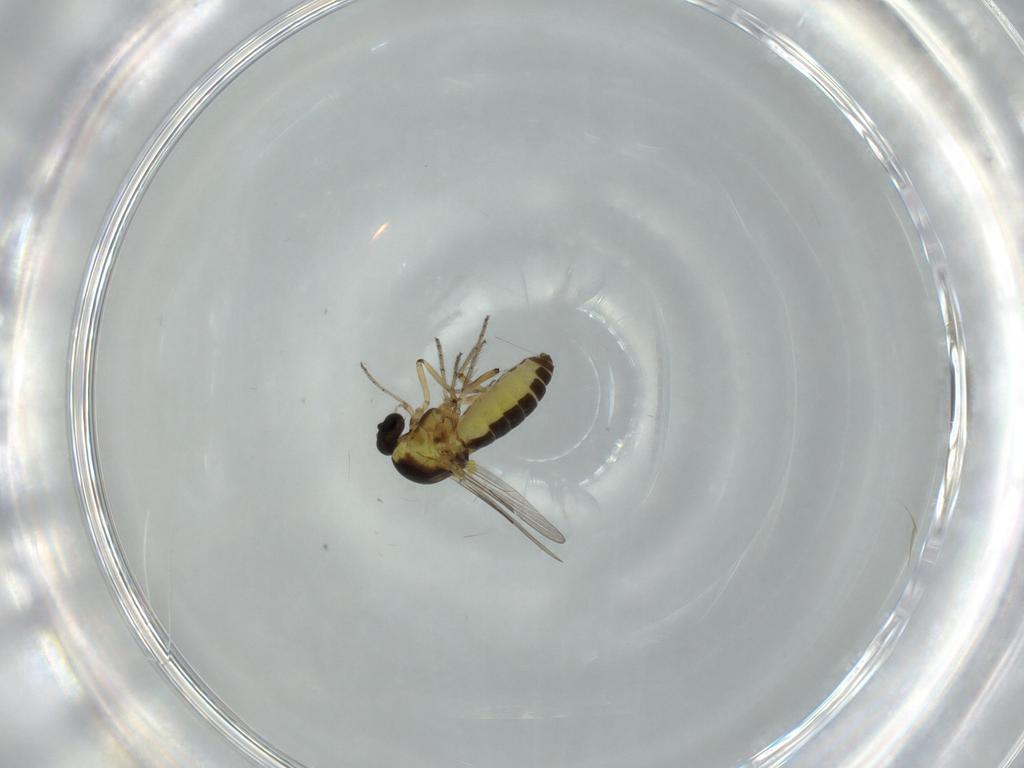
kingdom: Animalia
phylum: Arthropoda
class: Insecta
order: Diptera
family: Ceratopogonidae
